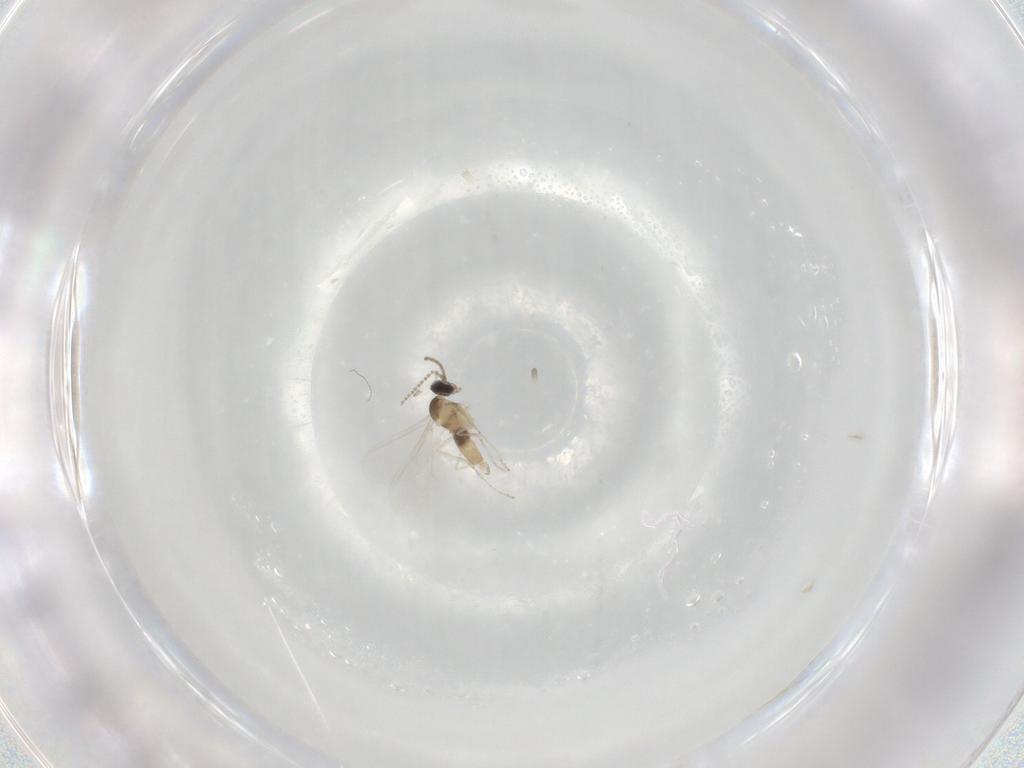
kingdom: Animalia
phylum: Arthropoda
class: Insecta
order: Diptera
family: Cecidomyiidae
